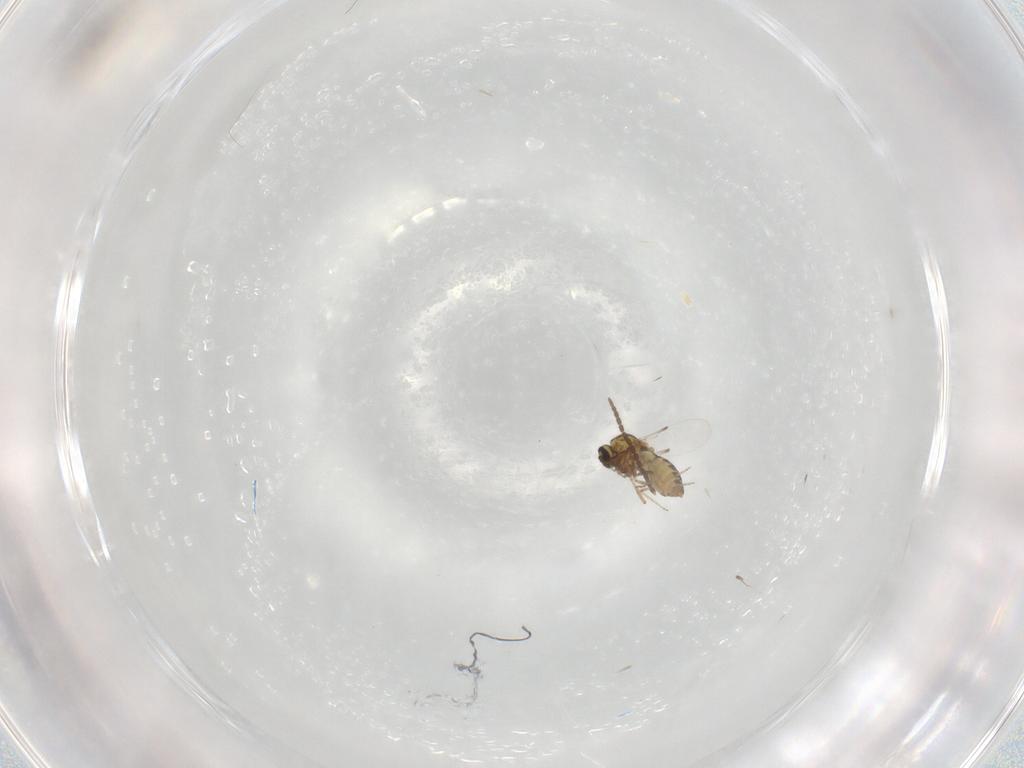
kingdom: Animalia
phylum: Arthropoda
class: Insecta
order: Diptera
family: Ceratopogonidae
